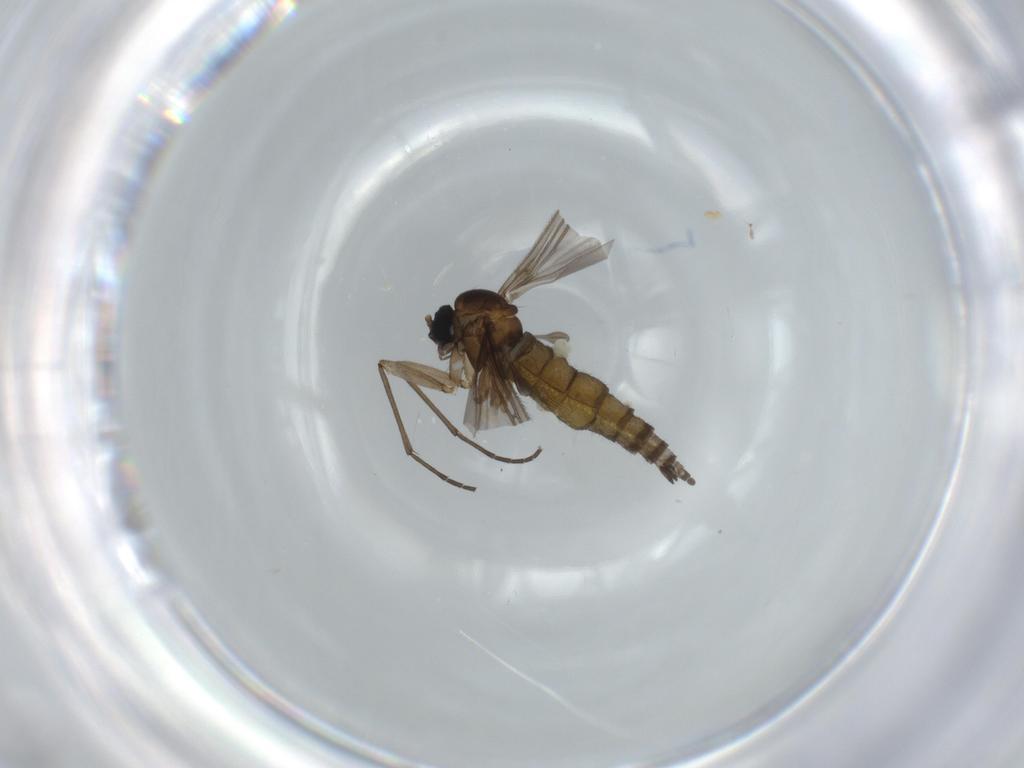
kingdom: Animalia
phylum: Arthropoda
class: Insecta
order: Diptera
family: Sciaridae
